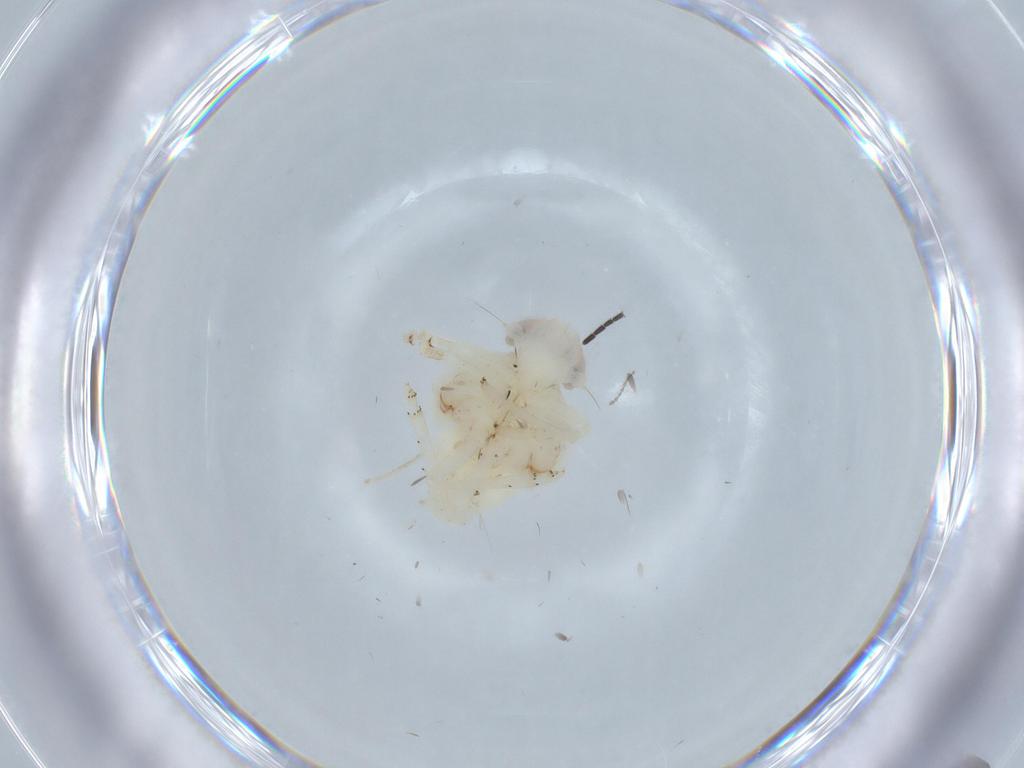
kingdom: Animalia
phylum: Arthropoda
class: Insecta
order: Hemiptera
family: Nogodinidae
